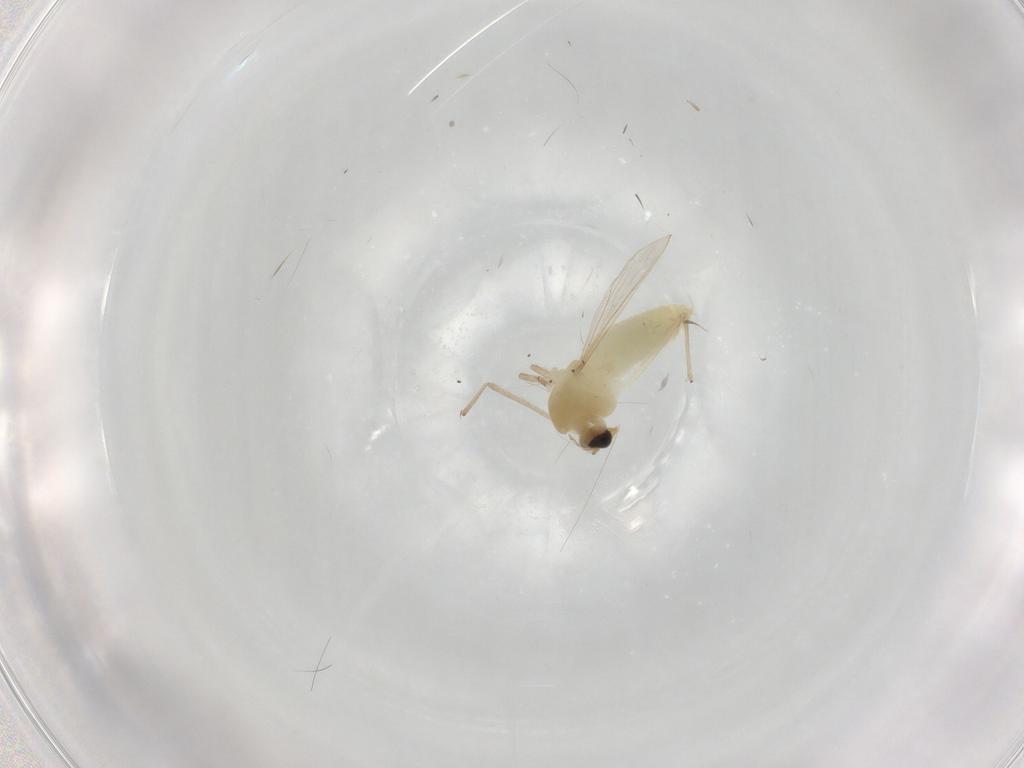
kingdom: Animalia
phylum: Arthropoda
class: Insecta
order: Diptera
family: Chironomidae
